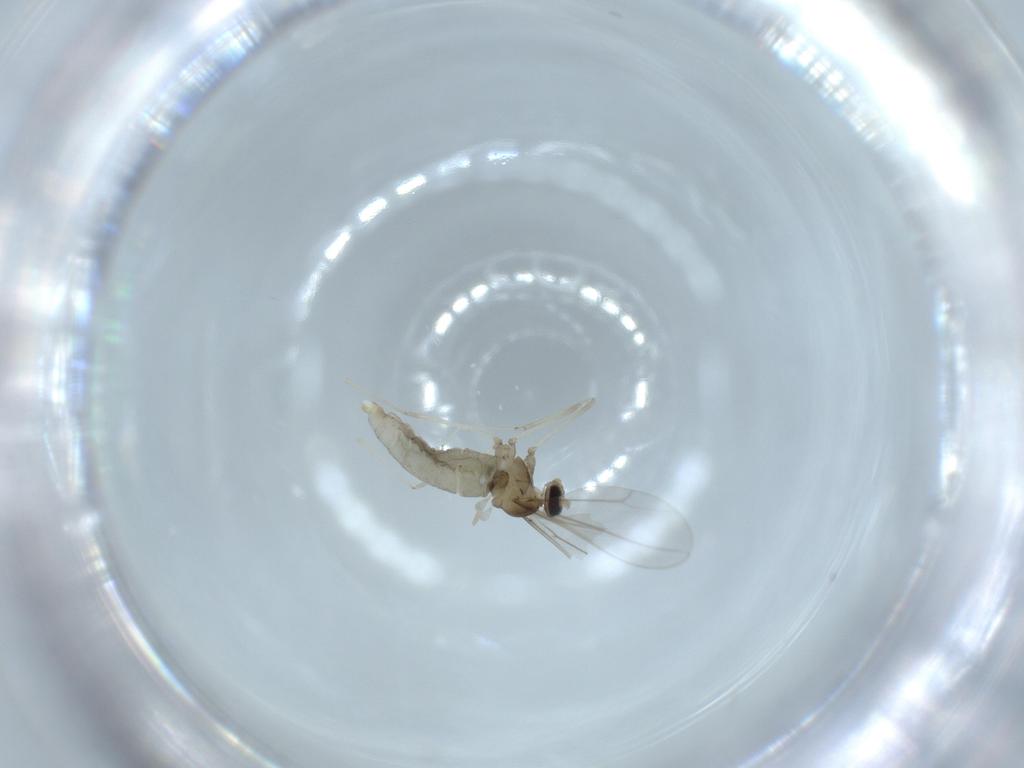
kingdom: Animalia
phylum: Arthropoda
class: Insecta
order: Diptera
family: Cecidomyiidae
